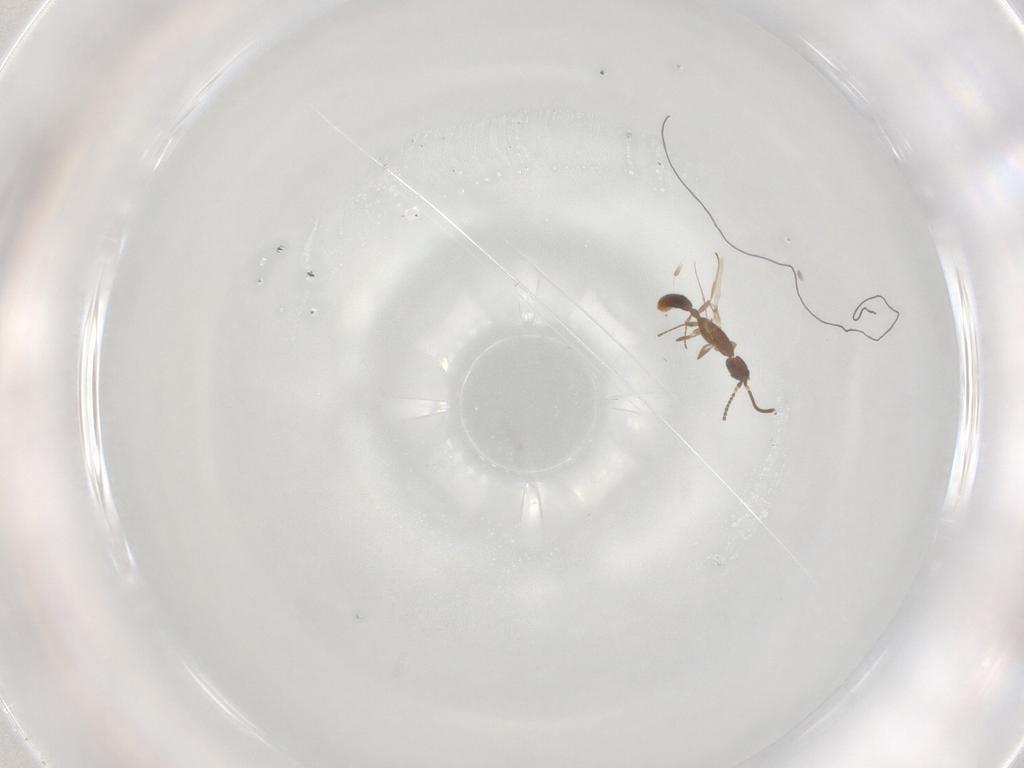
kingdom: Animalia
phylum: Arthropoda
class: Insecta
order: Hymenoptera
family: Formicidae
